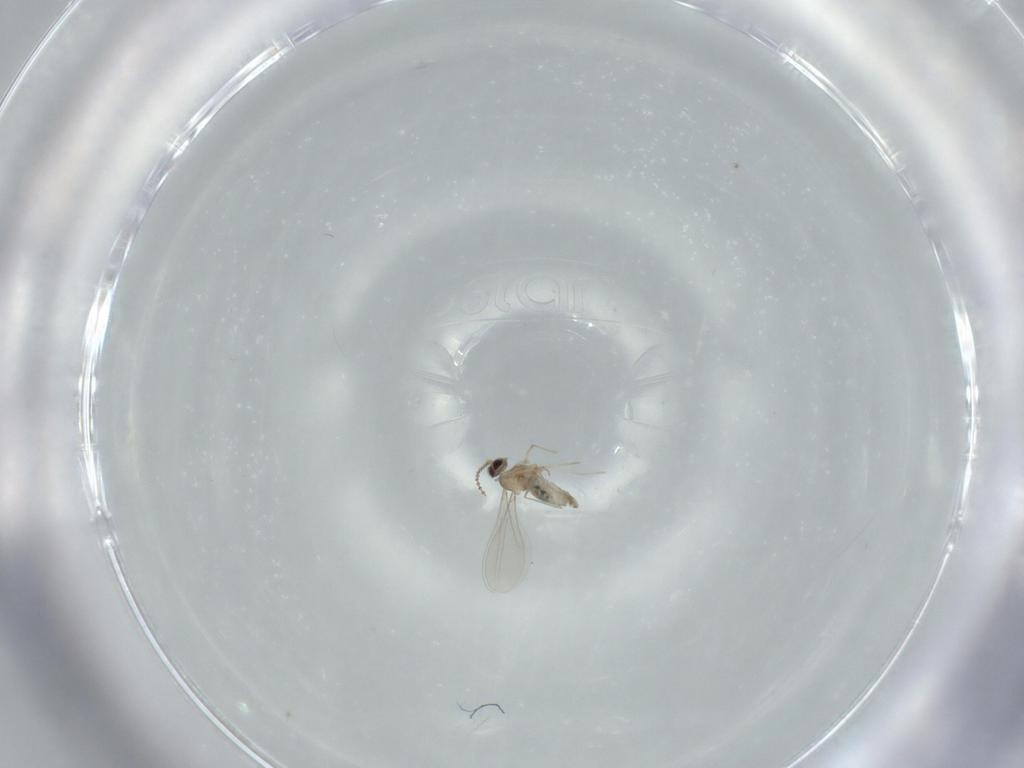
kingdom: Animalia
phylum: Arthropoda
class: Insecta
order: Diptera
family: Cecidomyiidae
